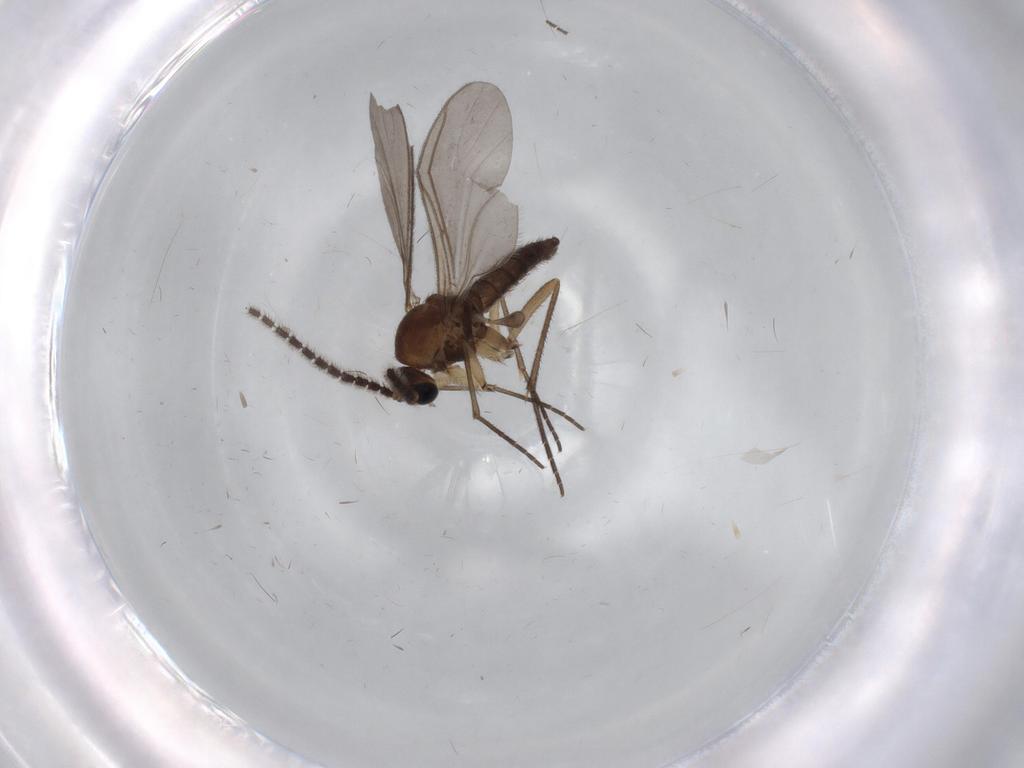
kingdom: Animalia
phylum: Arthropoda
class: Insecta
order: Diptera
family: Sciaridae
